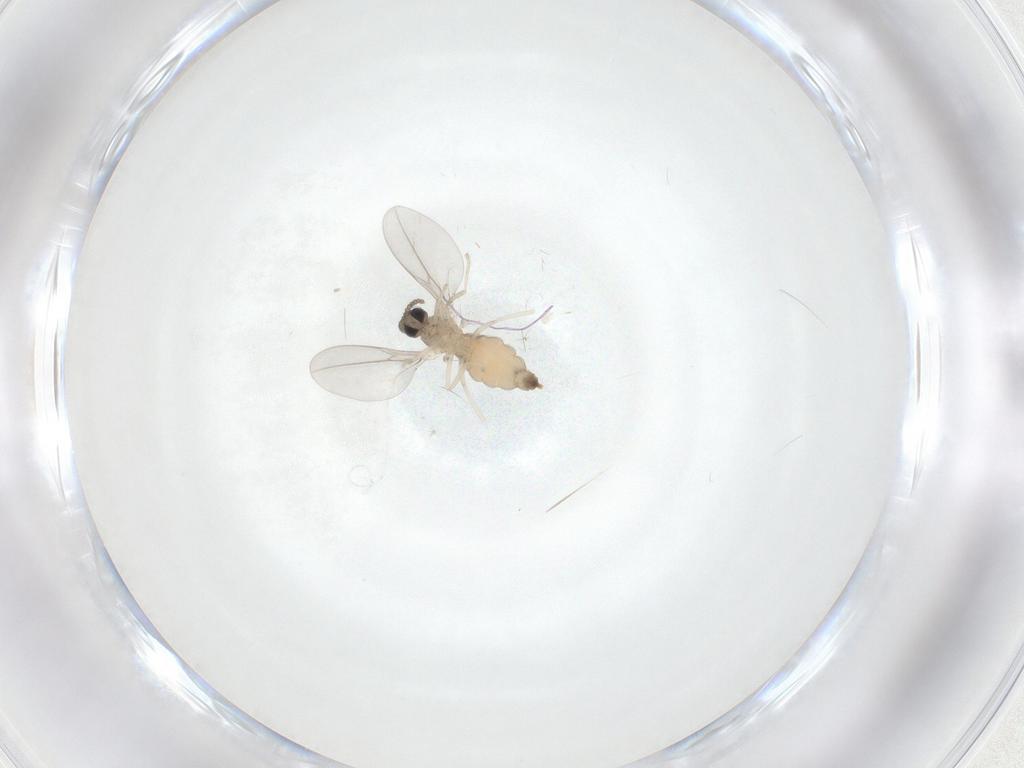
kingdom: Animalia
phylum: Arthropoda
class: Insecta
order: Diptera
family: Cecidomyiidae
